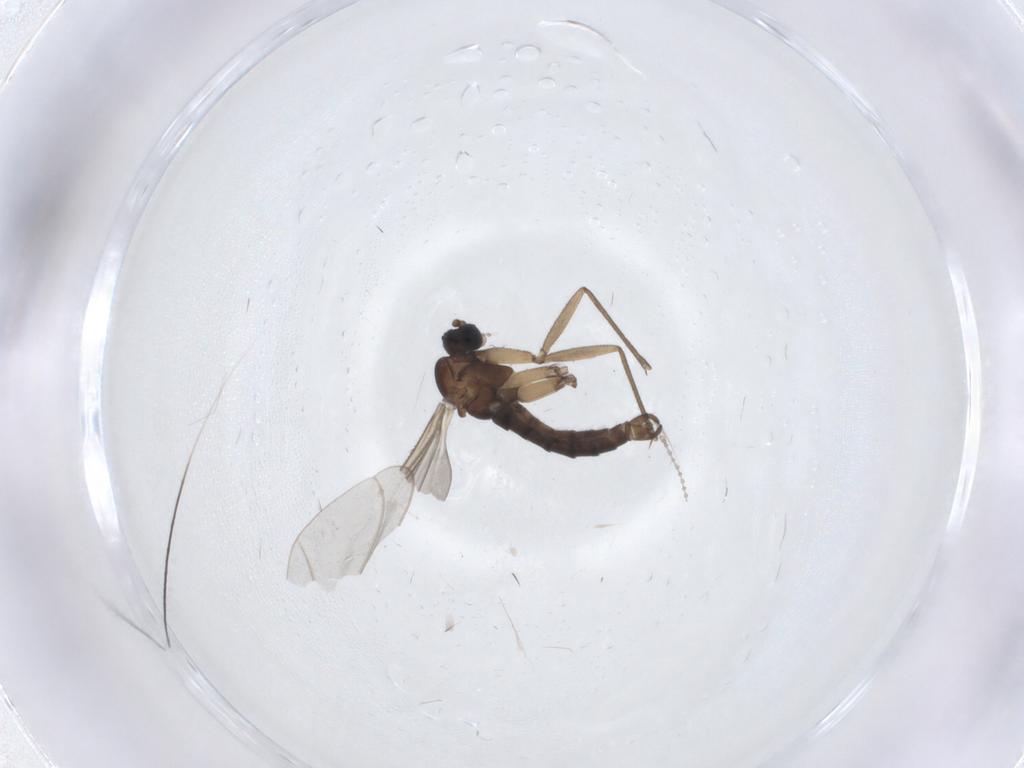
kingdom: Animalia
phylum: Arthropoda
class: Insecta
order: Diptera
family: Sciaridae
